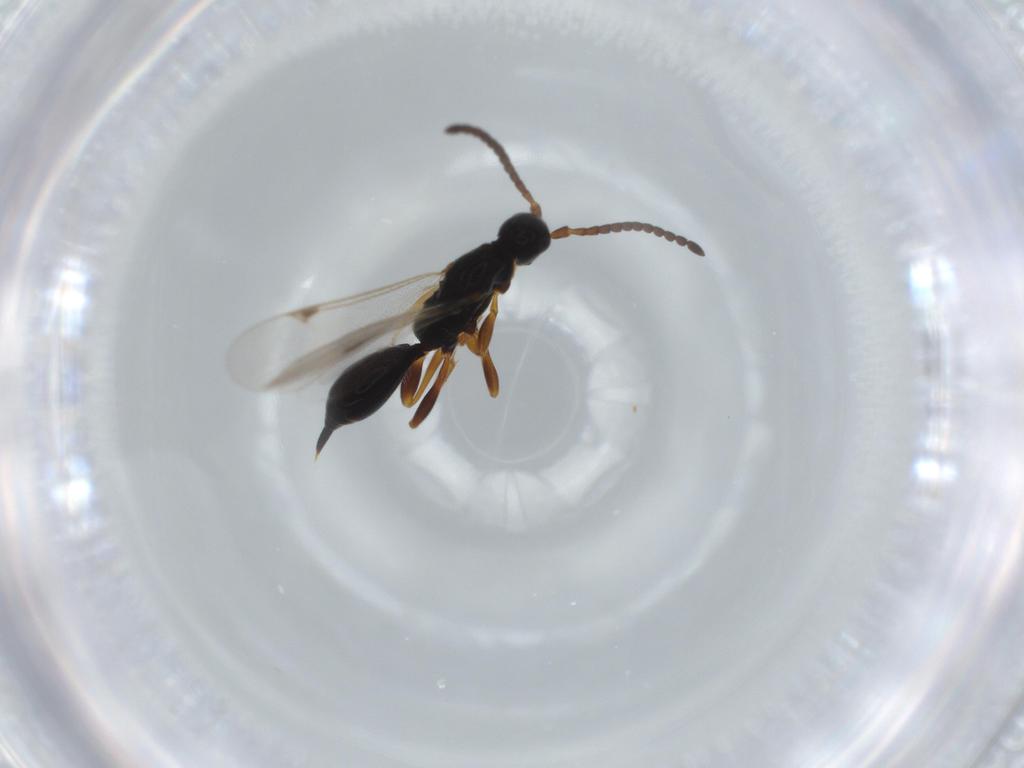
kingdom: Animalia
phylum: Arthropoda
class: Insecta
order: Hymenoptera
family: Proctotrupidae
